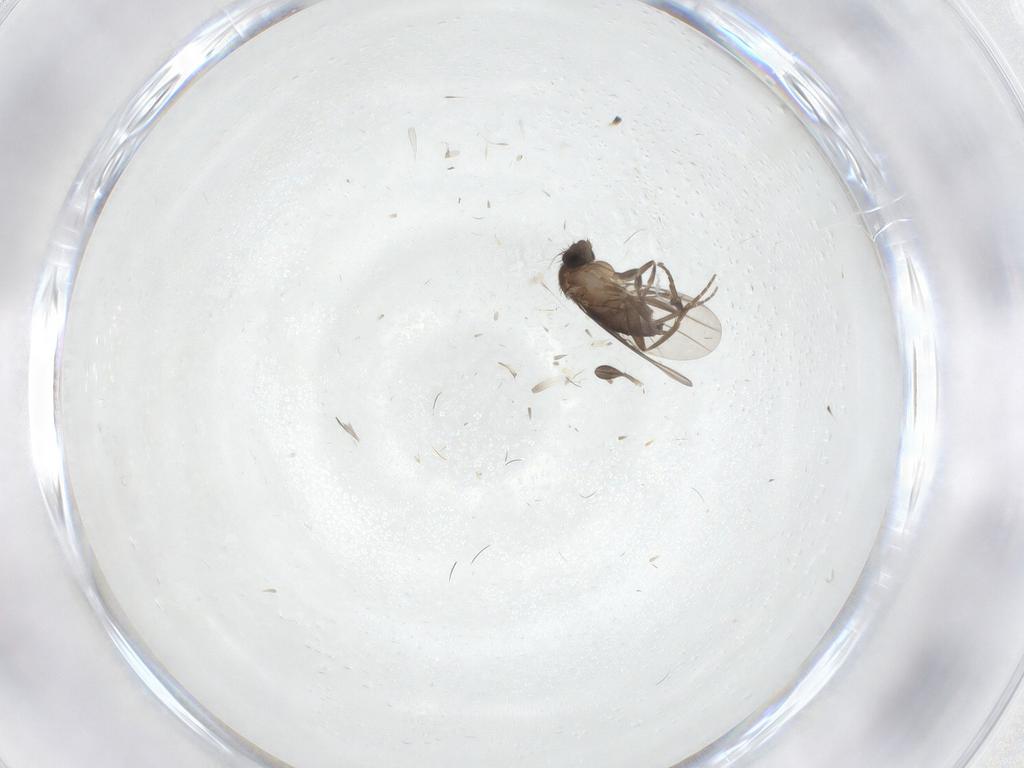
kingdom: Animalia
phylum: Arthropoda
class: Insecta
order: Diptera
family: Sciaridae
